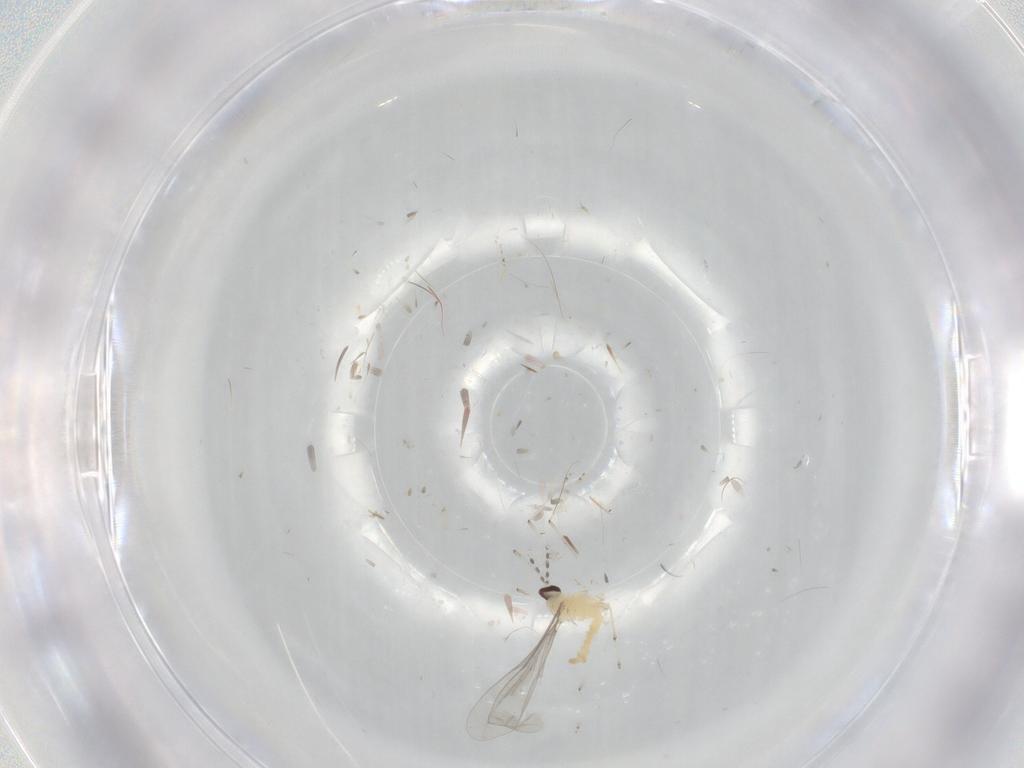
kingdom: Animalia
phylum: Arthropoda
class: Insecta
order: Diptera
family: Cecidomyiidae
